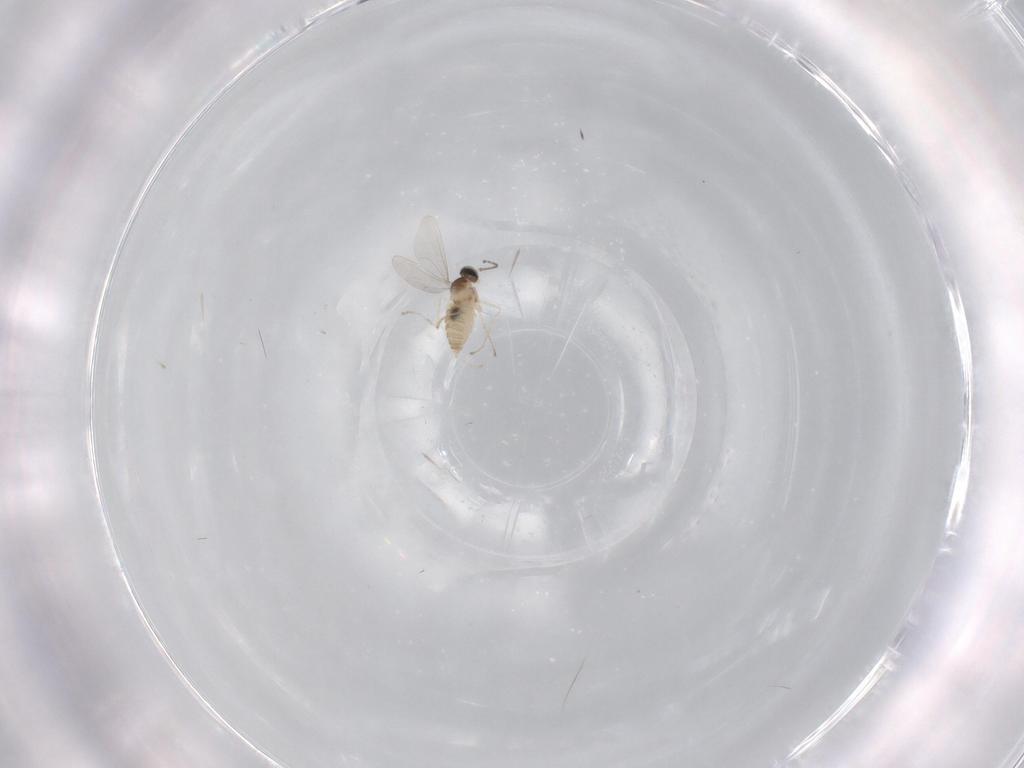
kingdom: Animalia
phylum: Arthropoda
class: Insecta
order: Diptera
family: Cecidomyiidae
